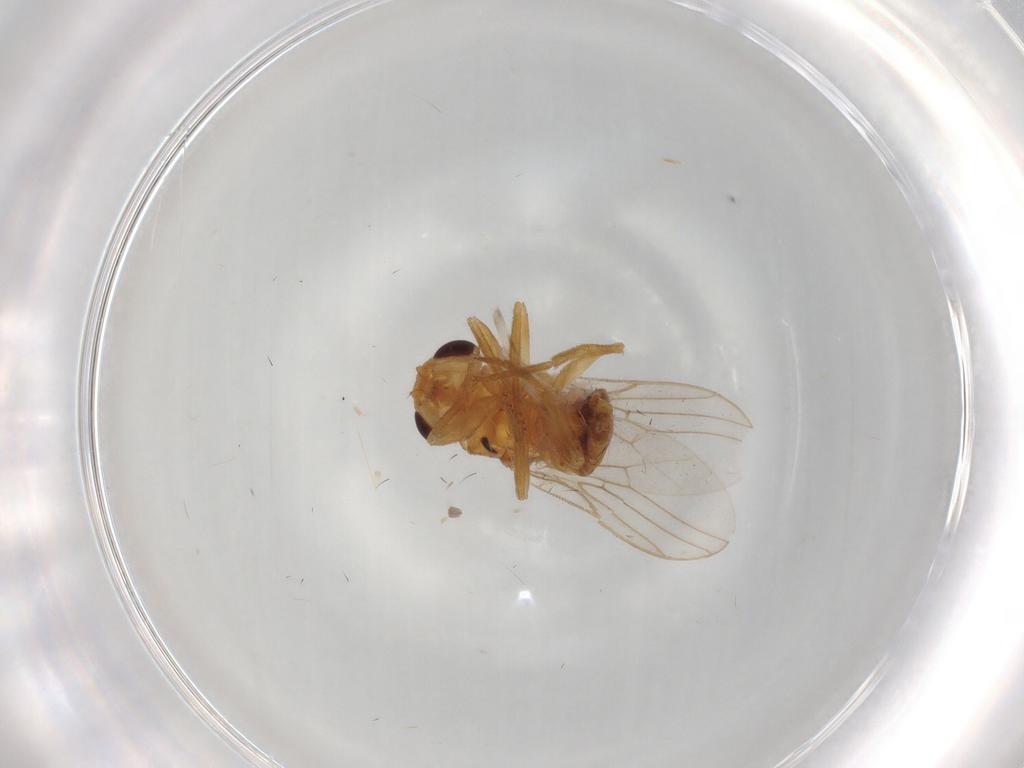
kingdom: Animalia
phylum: Arthropoda
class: Insecta
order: Diptera
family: Chloropidae
